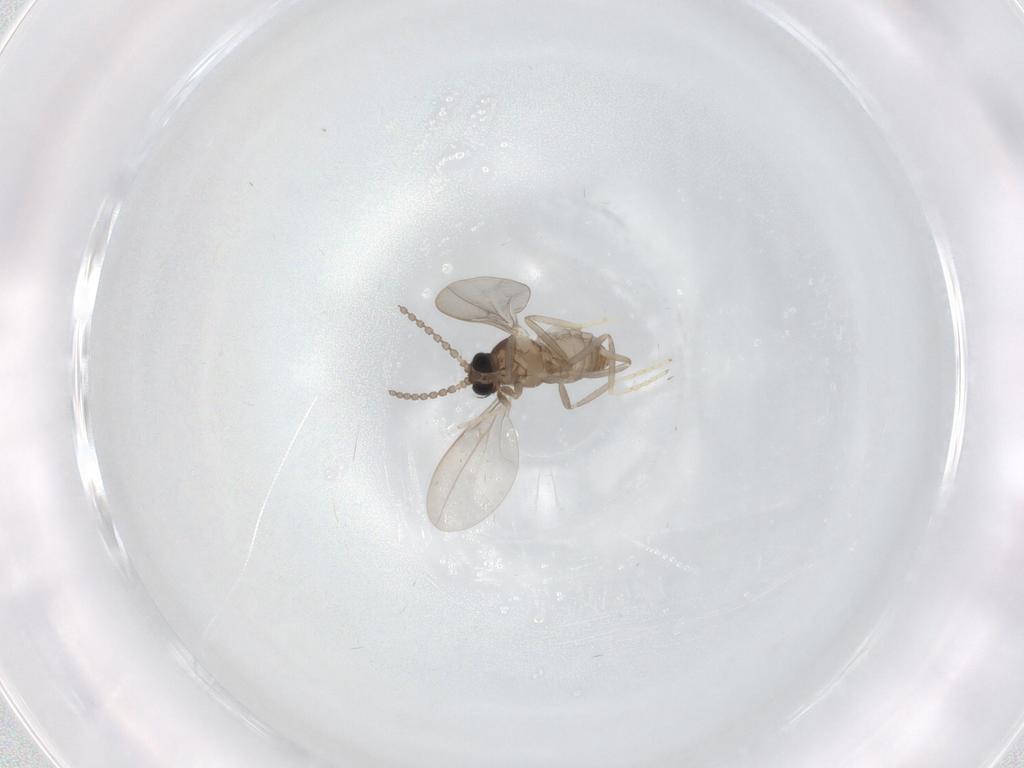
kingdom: Animalia
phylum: Arthropoda
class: Insecta
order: Diptera
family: Cecidomyiidae
